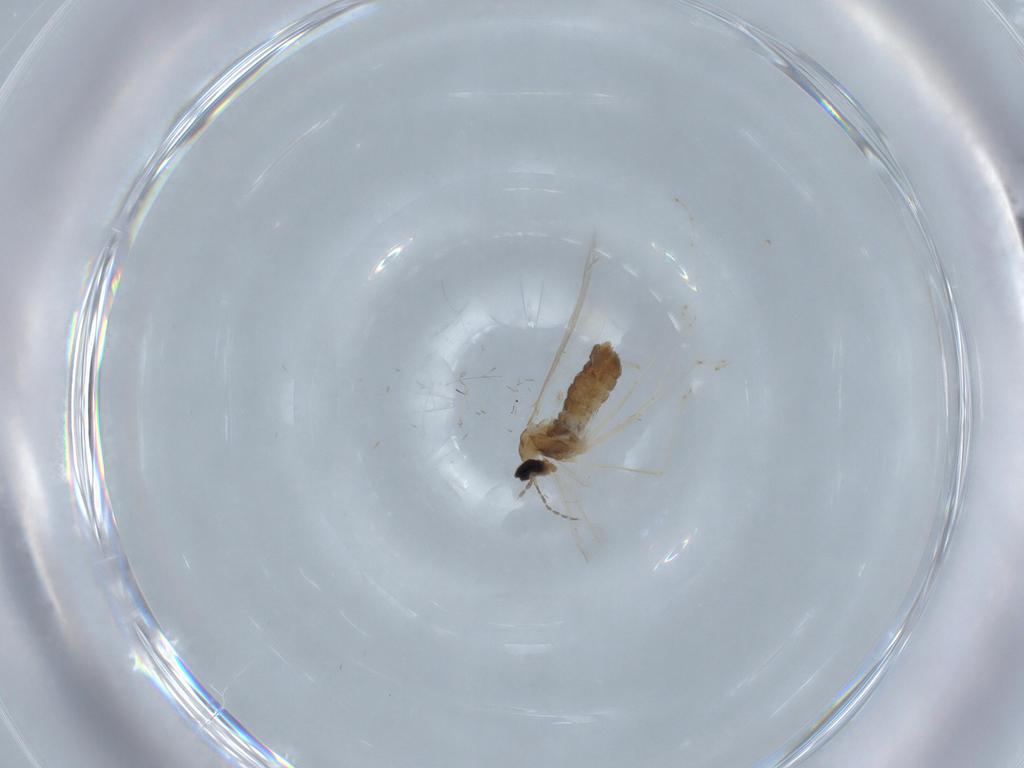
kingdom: Animalia
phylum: Arthropoda
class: Insecta
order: Diptera
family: Cecidomyiidae
